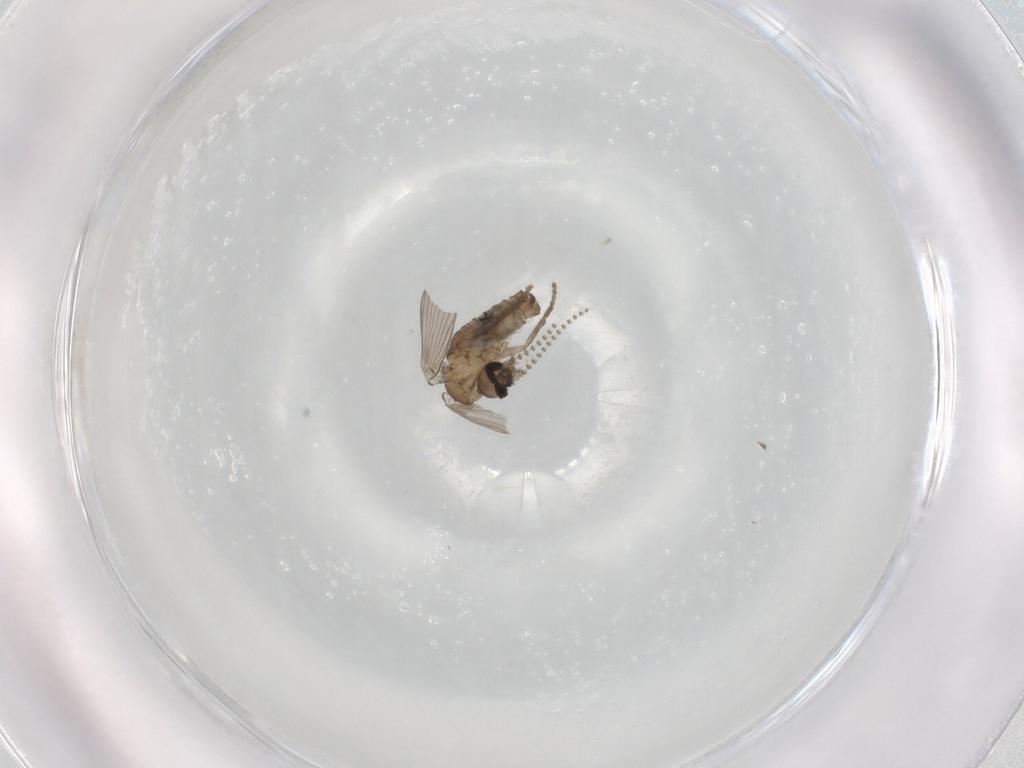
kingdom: Animalia
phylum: Arthropoda
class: Insecta
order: Diptera
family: Psychodidae
